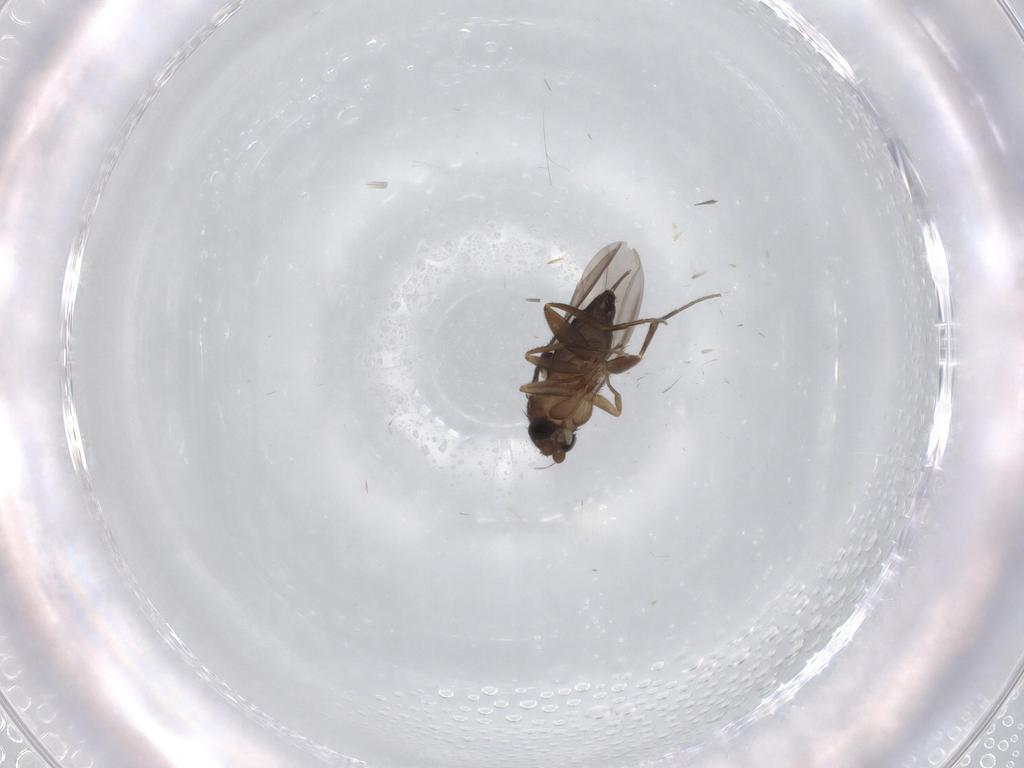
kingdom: Animalia
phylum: Arthropoda
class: Insecta
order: Diptera
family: Phoridae
